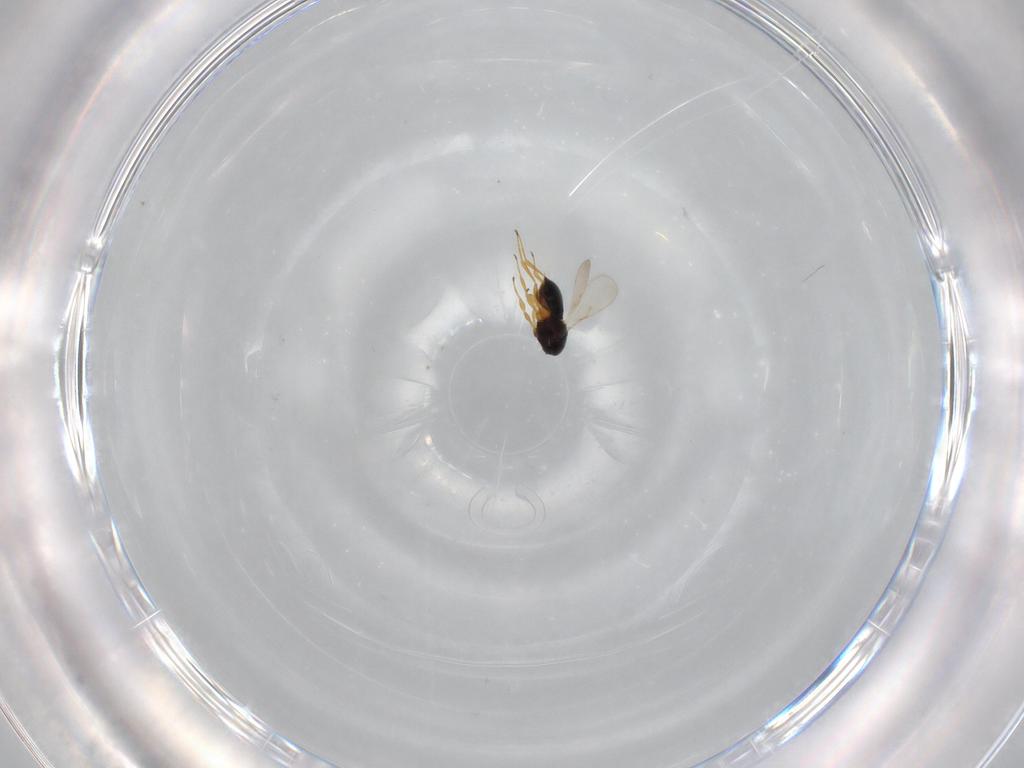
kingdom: Animalia
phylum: Arthropoda
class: Insecta
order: Hymenoptera
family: Scelionidae
